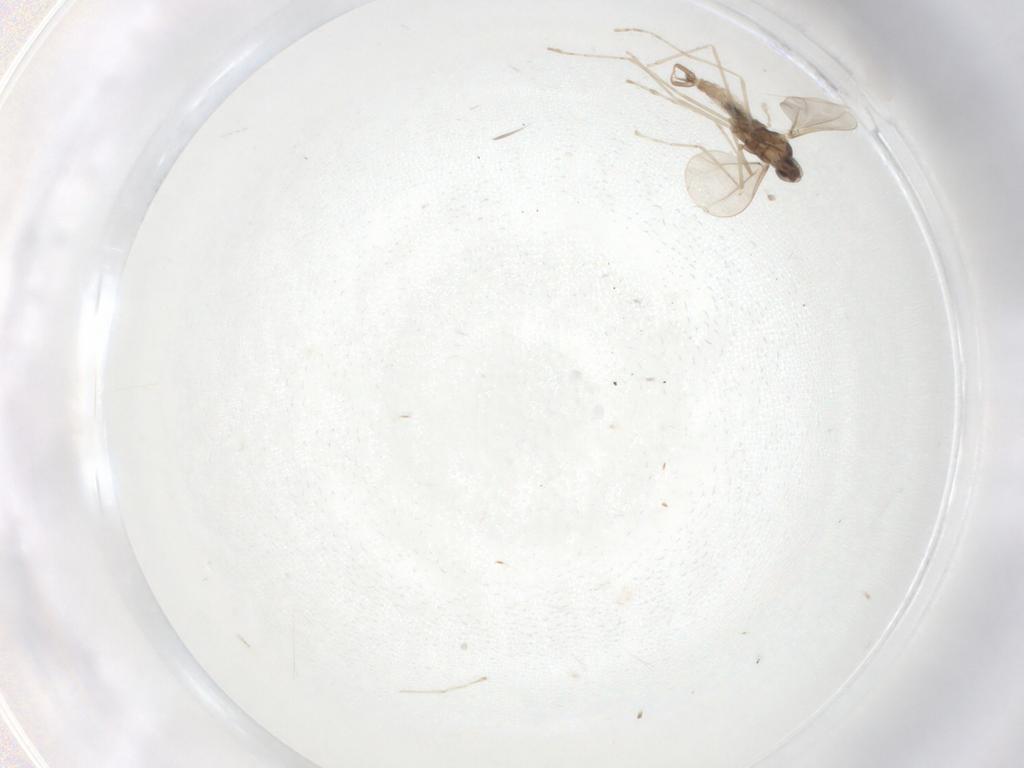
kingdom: Animalia
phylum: Arthropoda
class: Insecta
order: Diptera
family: Cecidomyiidae
